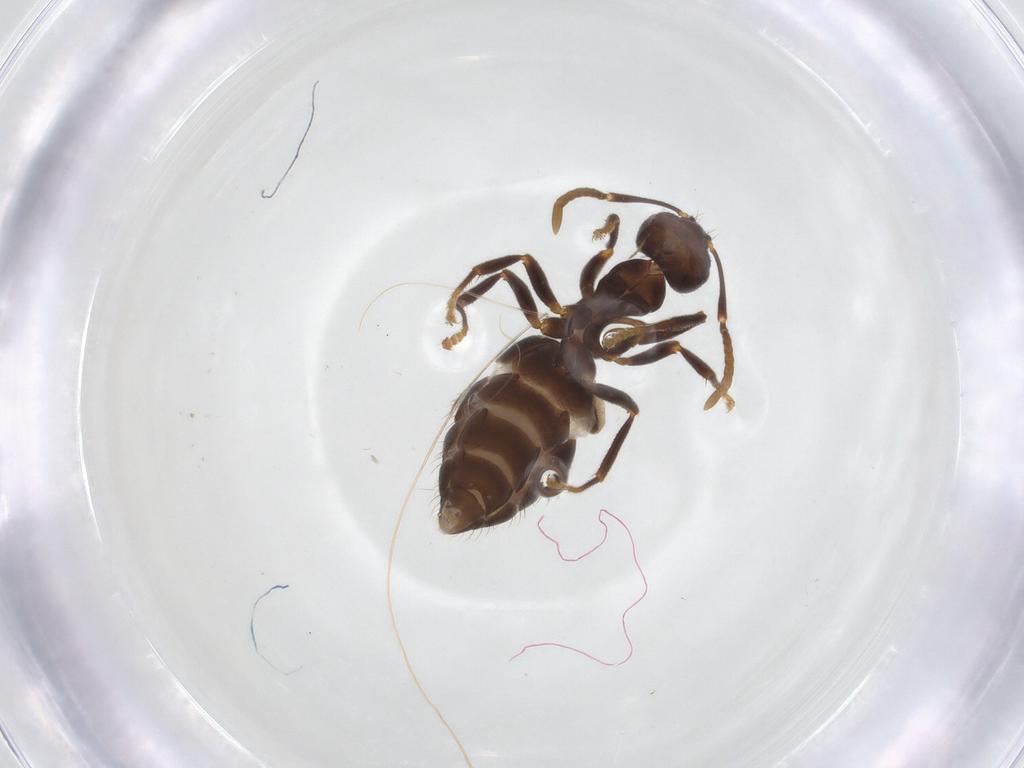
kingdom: Animalia
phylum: Arthropoda
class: Insecta
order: Hymenoptera
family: Formicidae
